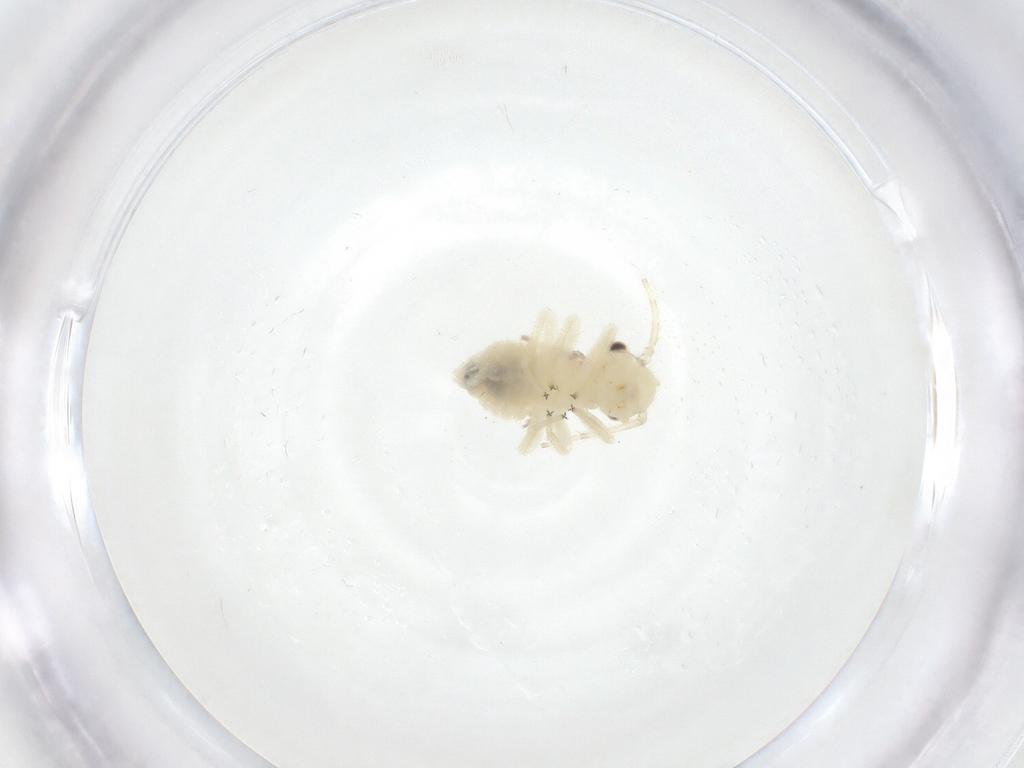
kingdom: Animalia
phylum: Arthropoda
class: Insecta
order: Psocodea
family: Amphipsocidae
